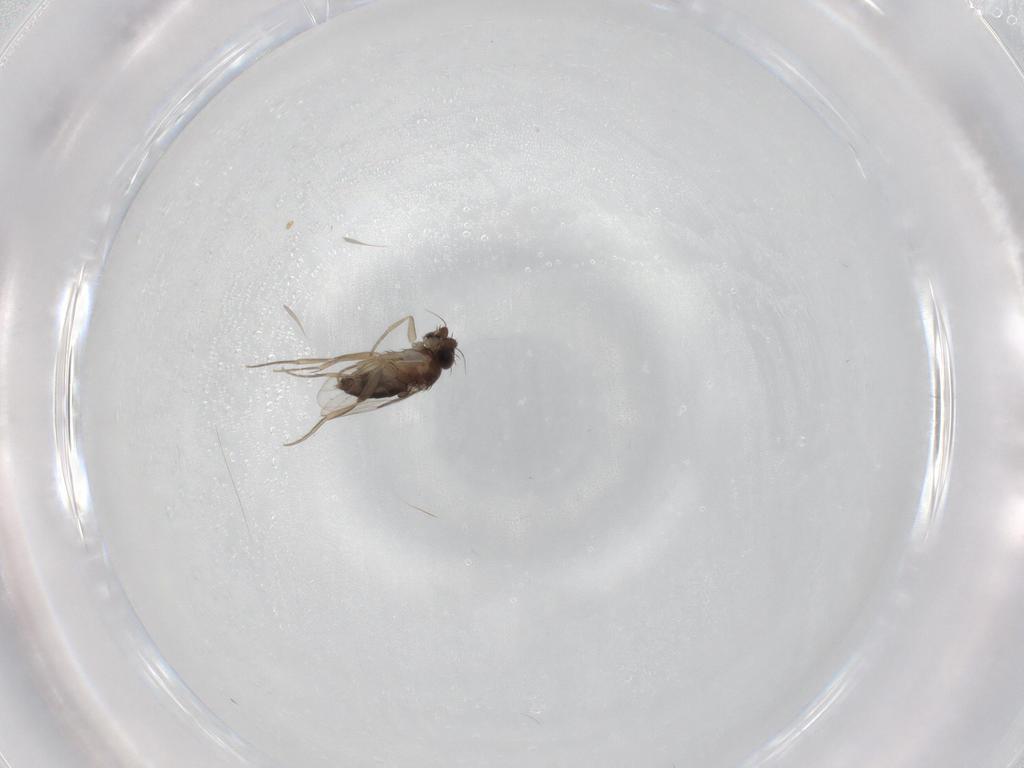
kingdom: Animalia
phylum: Arthropoda
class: Insecta
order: Diptera
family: Phoridae
